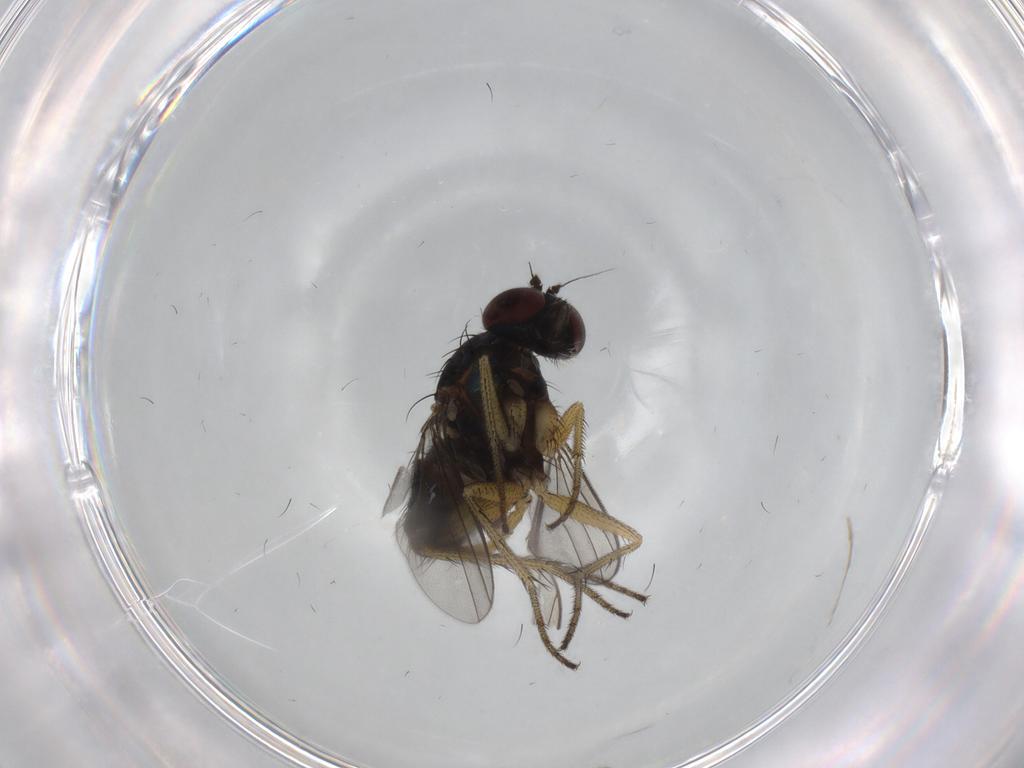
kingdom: Animalia
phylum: Arthropoda
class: Insecta
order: Diptera
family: Dolichopodidae
